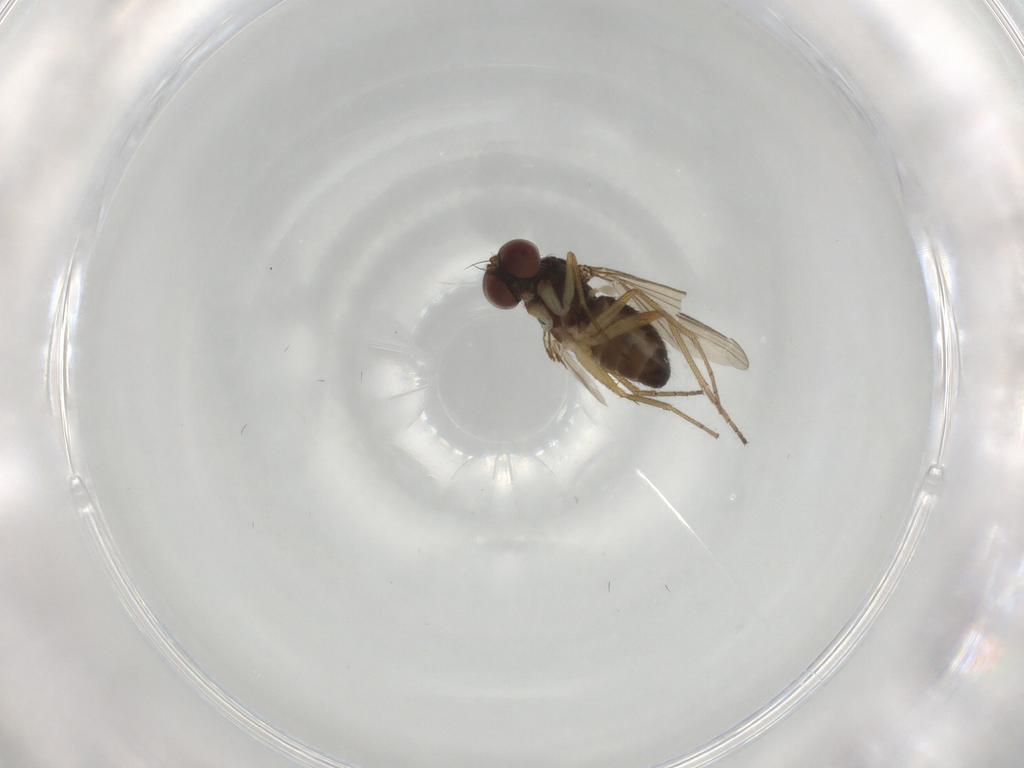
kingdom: Animalia
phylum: Arthropoda
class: Insecta
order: Diptera
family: Dolichopodidae
